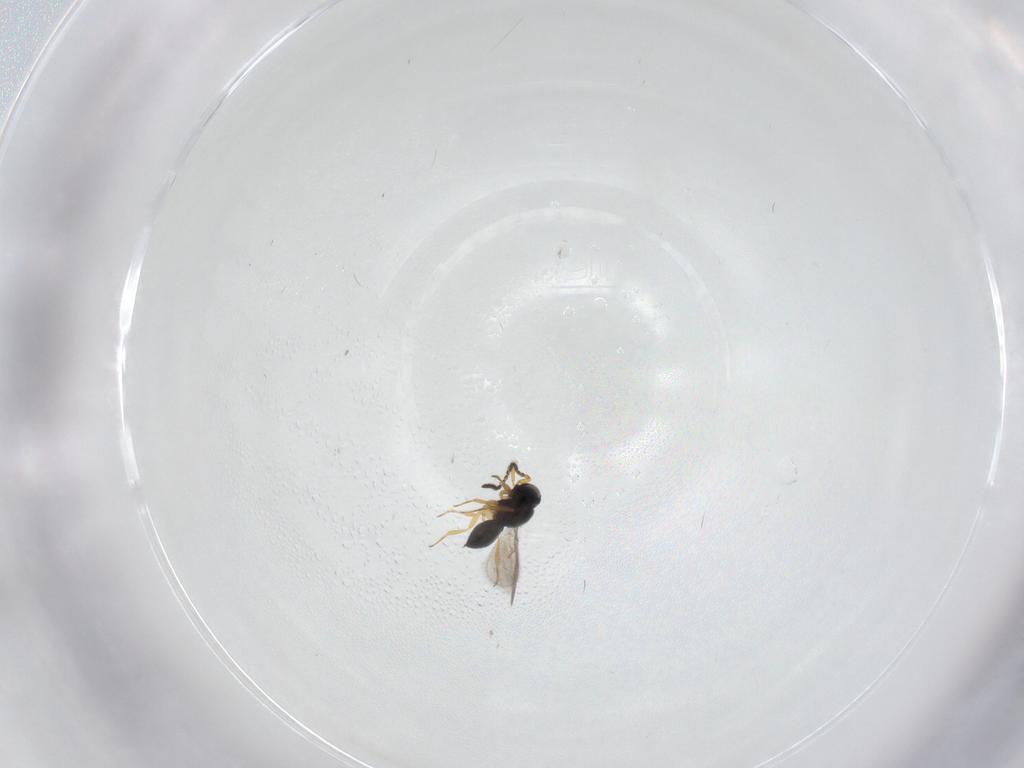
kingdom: Animalia
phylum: Arthropoda
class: Insecta
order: Hymenoptera
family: Scelionidae
